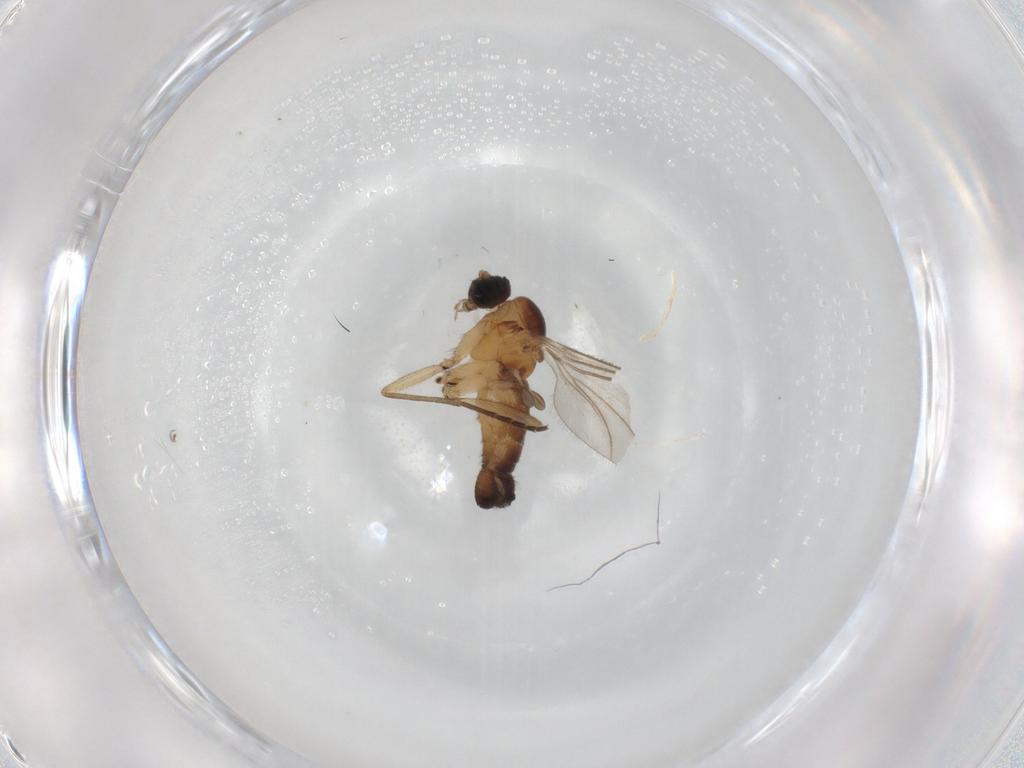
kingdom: Animalia
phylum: Arthropoda
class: Insecta
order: Diptera
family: Sciaridae
